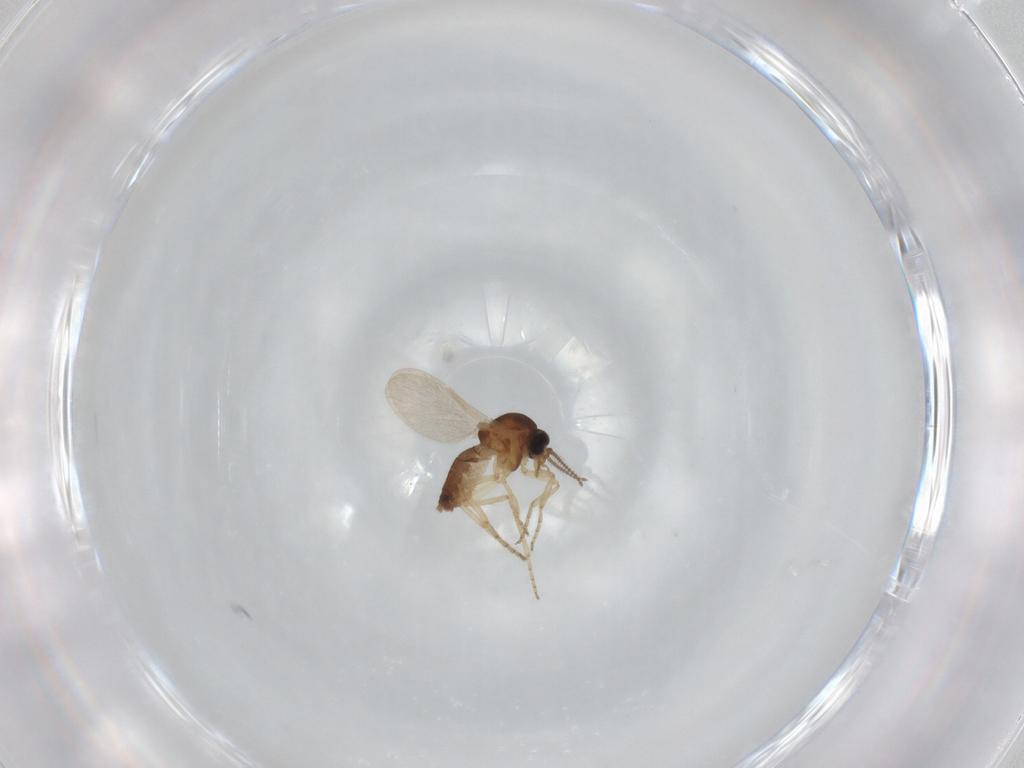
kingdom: Animalia
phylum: Arthropoda
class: Insecta
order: Diptera
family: Ceratopogonidae
